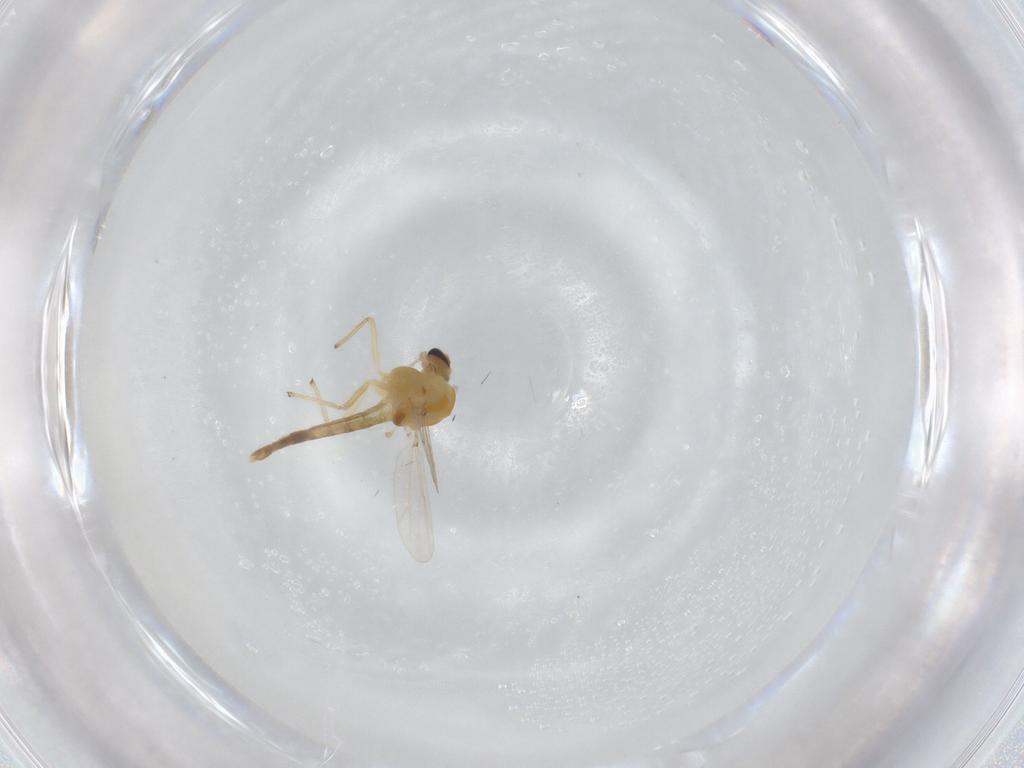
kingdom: Animalia
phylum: Arthropoda
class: Insecta
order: Diptera
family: Chironomidae
